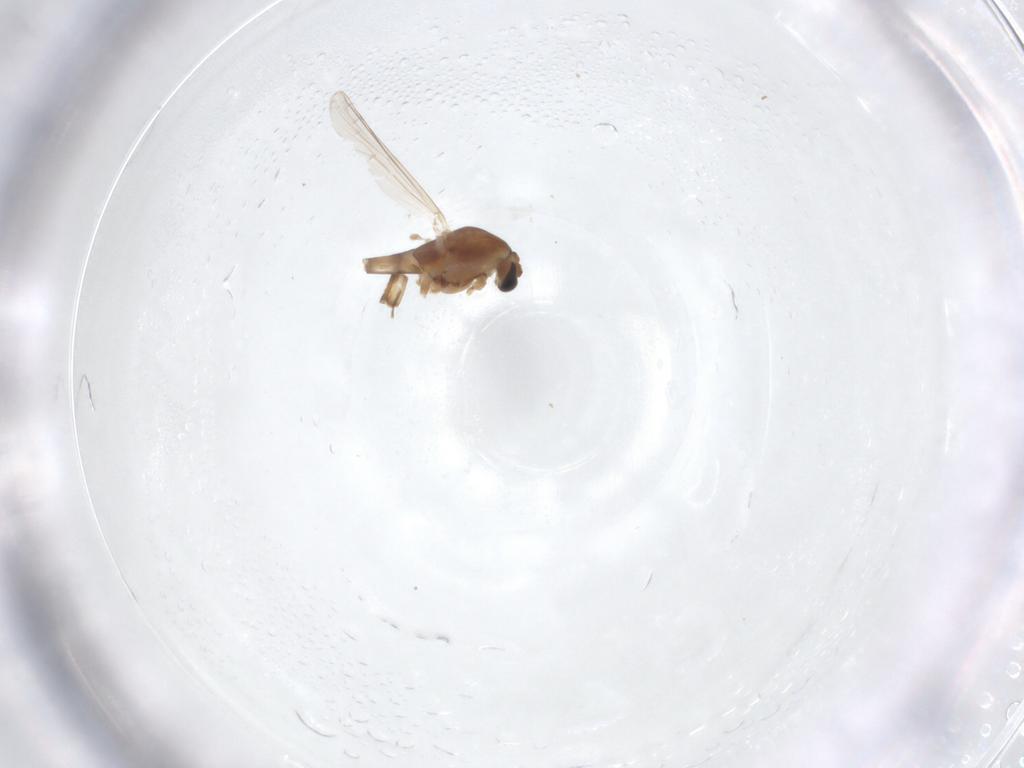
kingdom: Animalia
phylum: Arthropoda
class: Insecta
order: Diptera
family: Chironomidae
